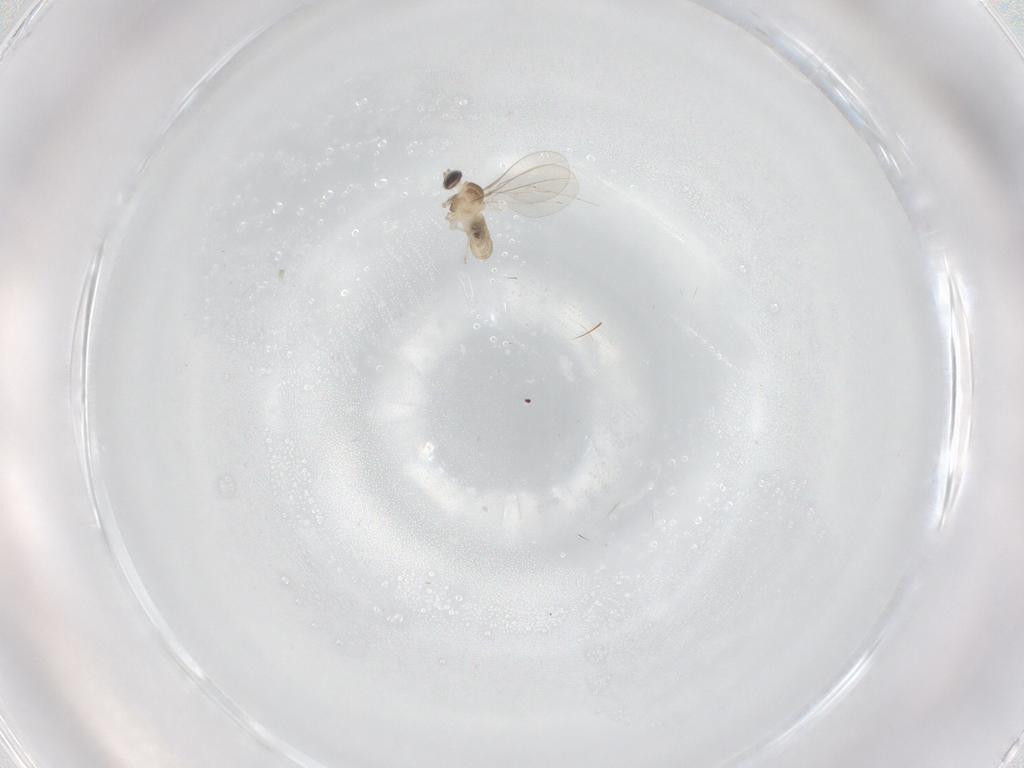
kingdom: Animalia
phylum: Arthropoda
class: Insecta
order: Diptera
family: Cecidomyiidae
